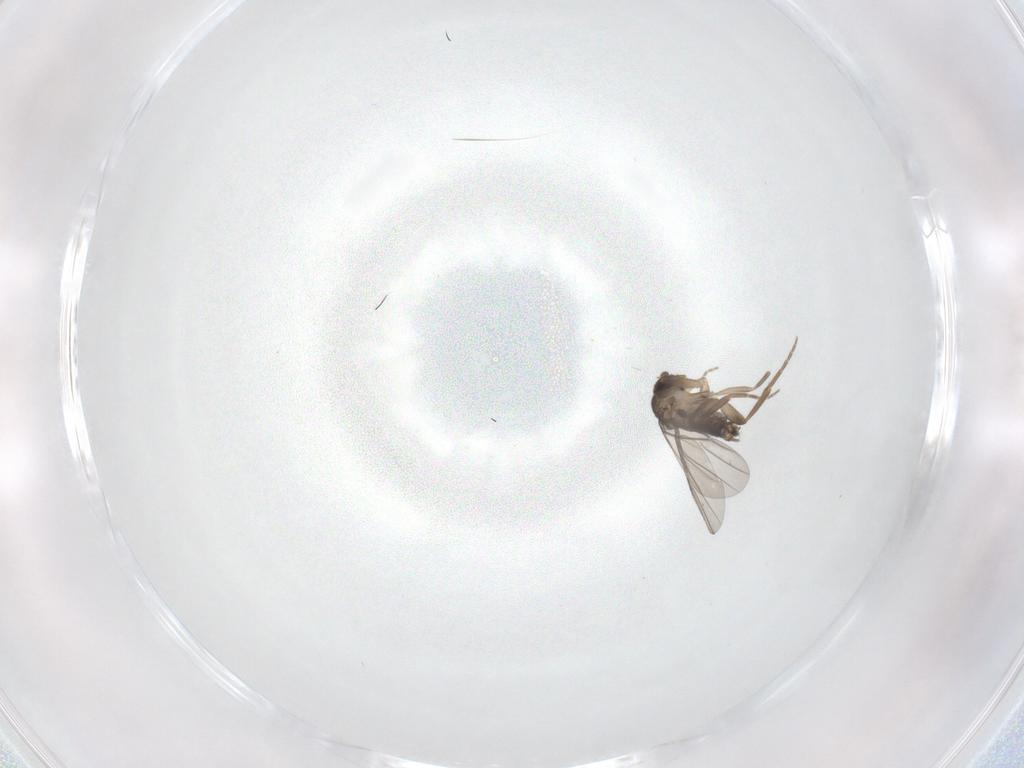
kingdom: Animalia
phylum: Arthropoda
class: Insecta
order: Diptera
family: Phoridae
